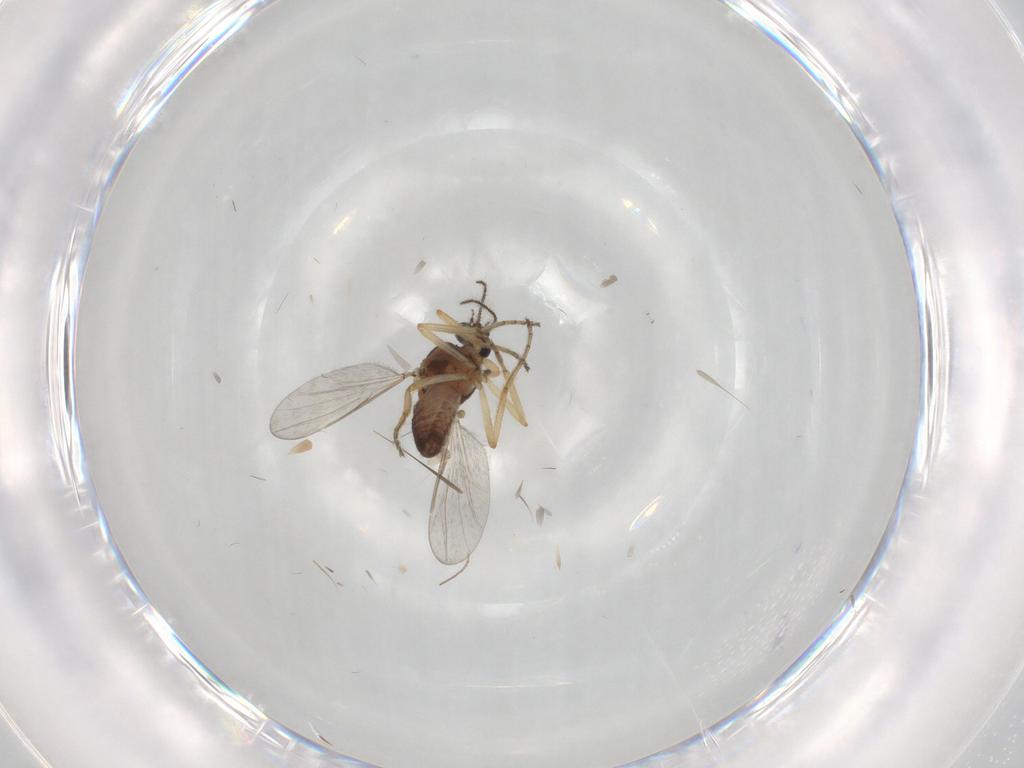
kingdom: Animalia
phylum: Arthropoda
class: Insecta
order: Diptera
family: Ceratopogonidae
